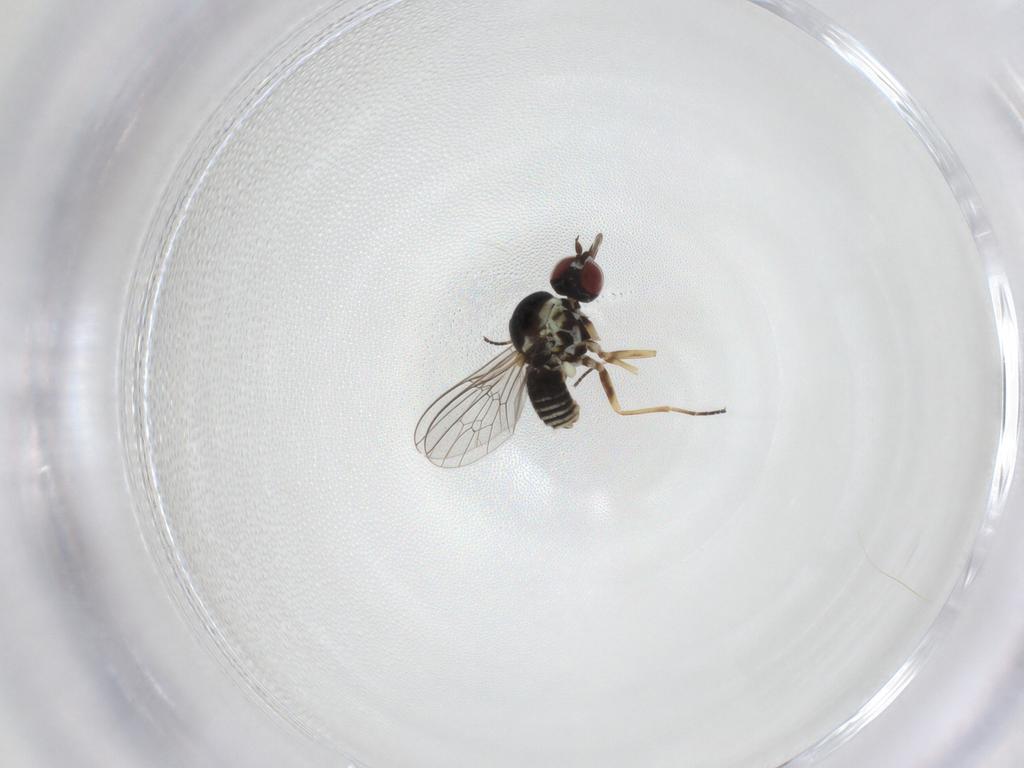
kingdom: Animalia
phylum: Arthropoda
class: Insecta
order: Diptera
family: Mythicomyiidae
